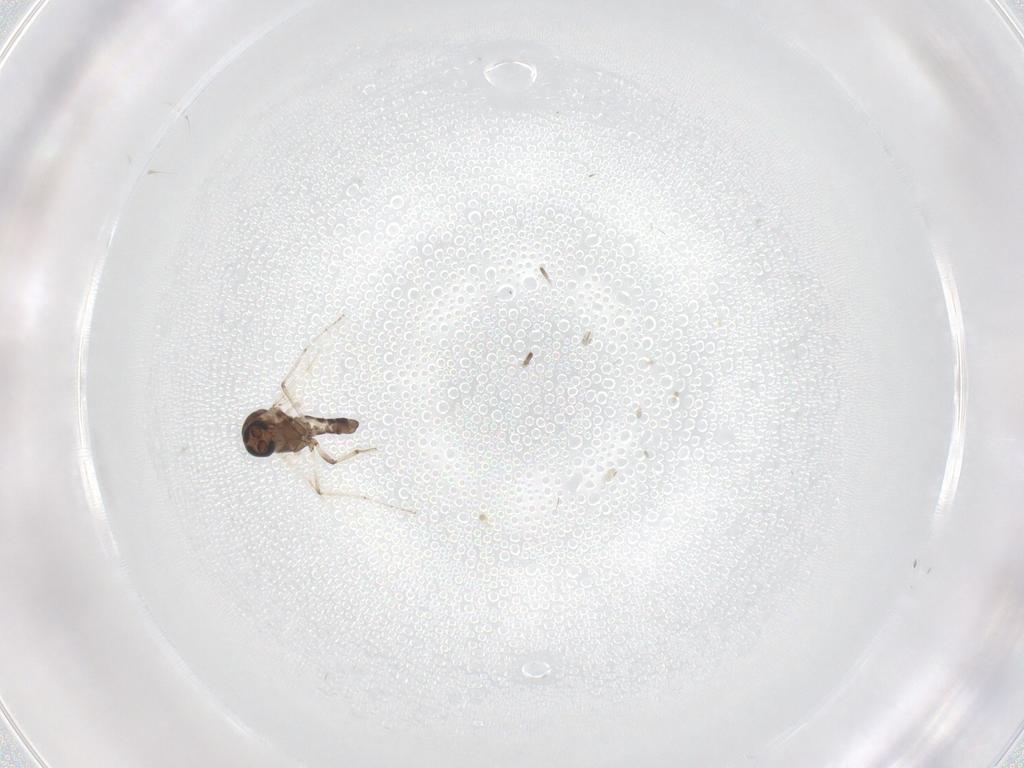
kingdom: Animalia
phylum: Arthropoda
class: Insecta
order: Diptera
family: Ceratopogonidae
